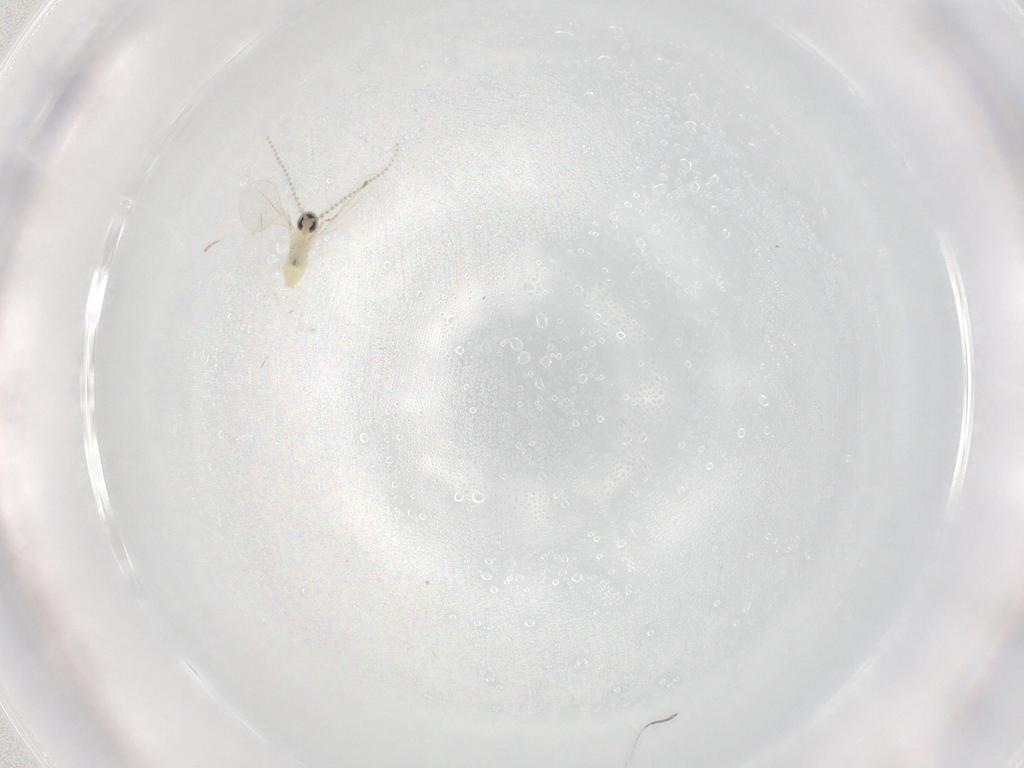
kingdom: Animalia
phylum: Arthropoda
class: Insecta
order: Diptera
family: Cecidomyiidae
